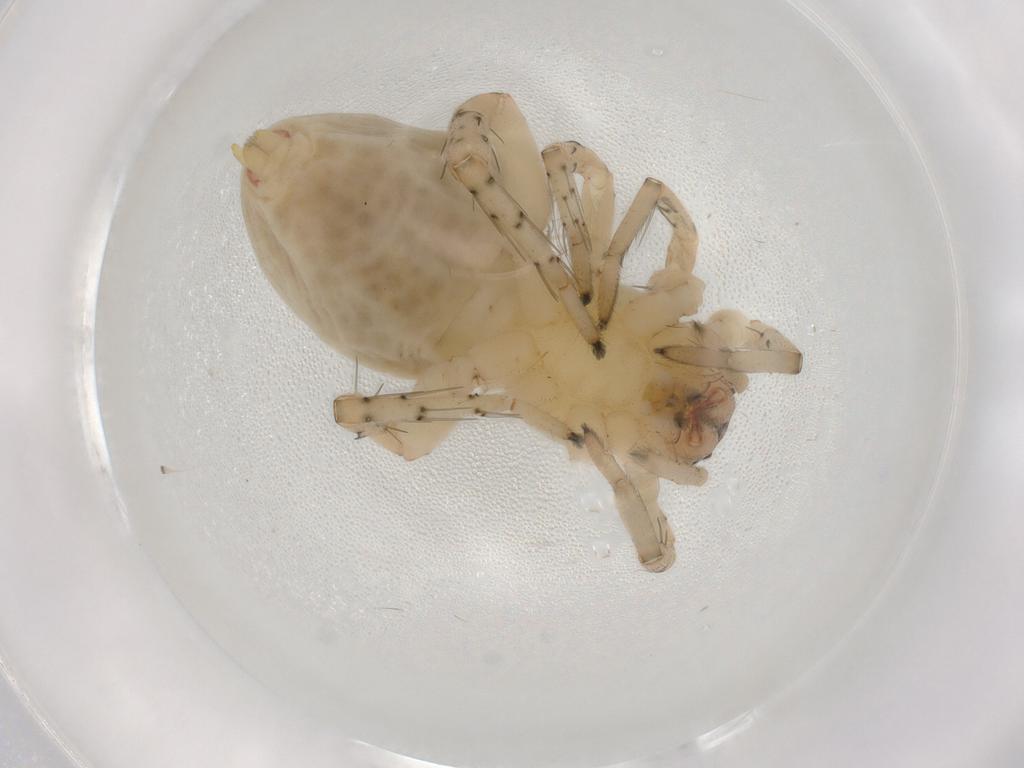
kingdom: Animalia
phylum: Arthropoda
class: Arachnida
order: Araneae
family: Clubionidae
